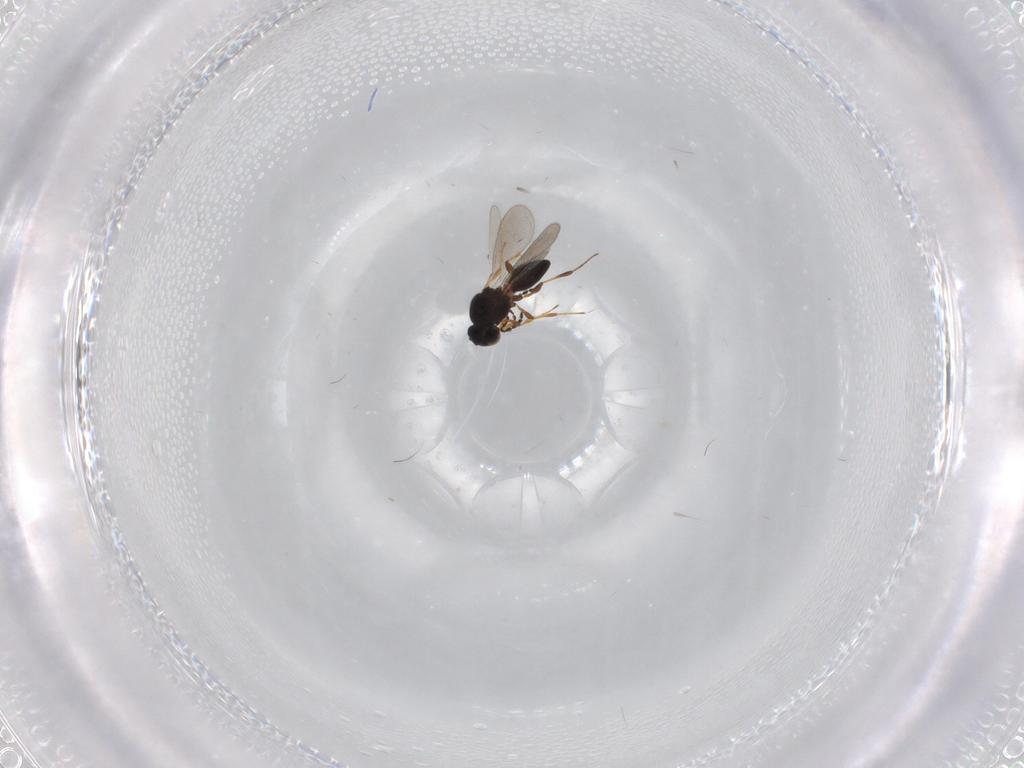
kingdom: Animalia
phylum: Arthropoda
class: Insecta
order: Hymenoptera
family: Platygastridae
